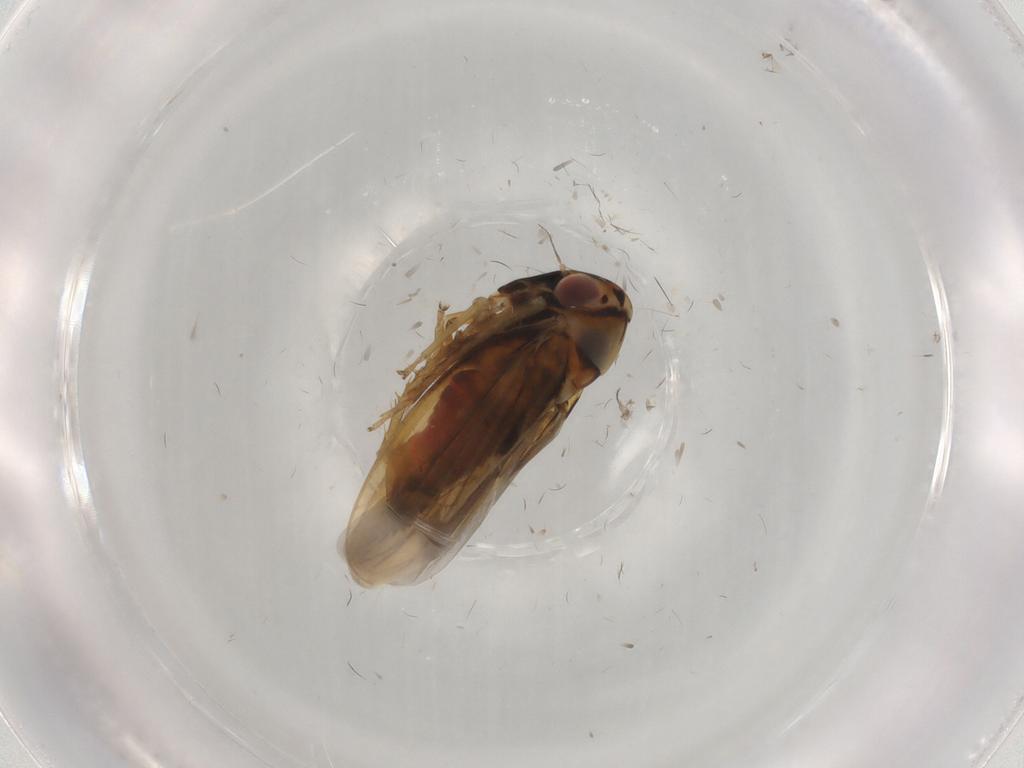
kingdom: Animalia
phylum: Arthropoda
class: Insecta
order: Hemiptera
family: Cicadellidae
